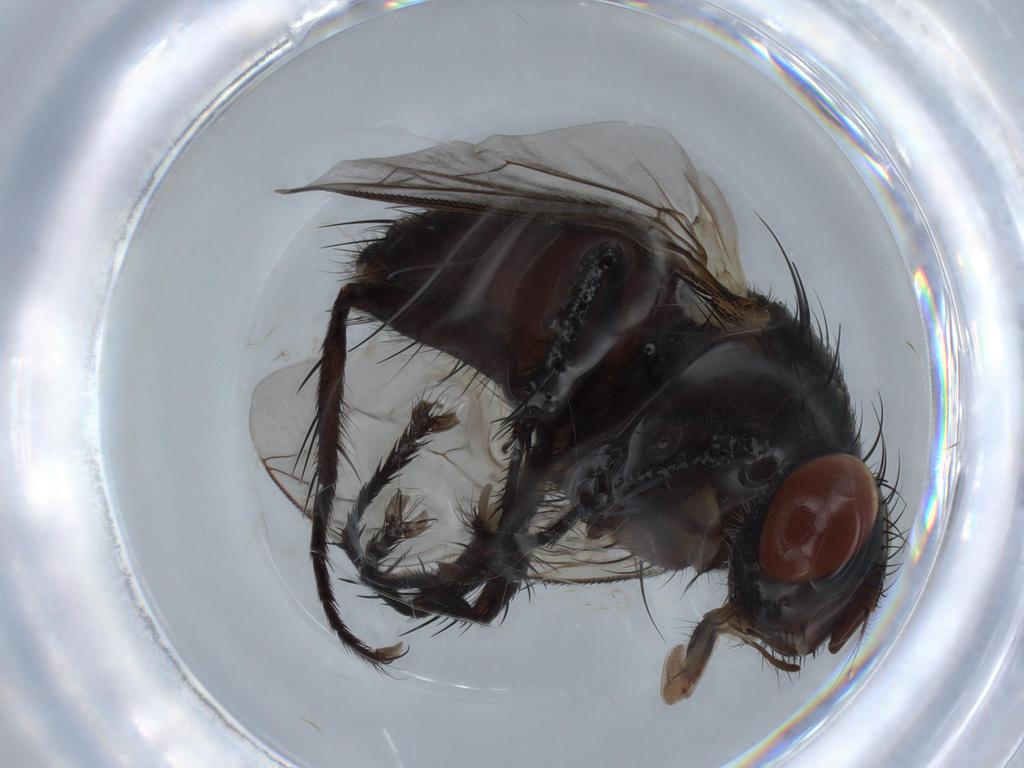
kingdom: Animalia
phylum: Arthropoda
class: Insecta
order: Diptera
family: Sarcophagidae
